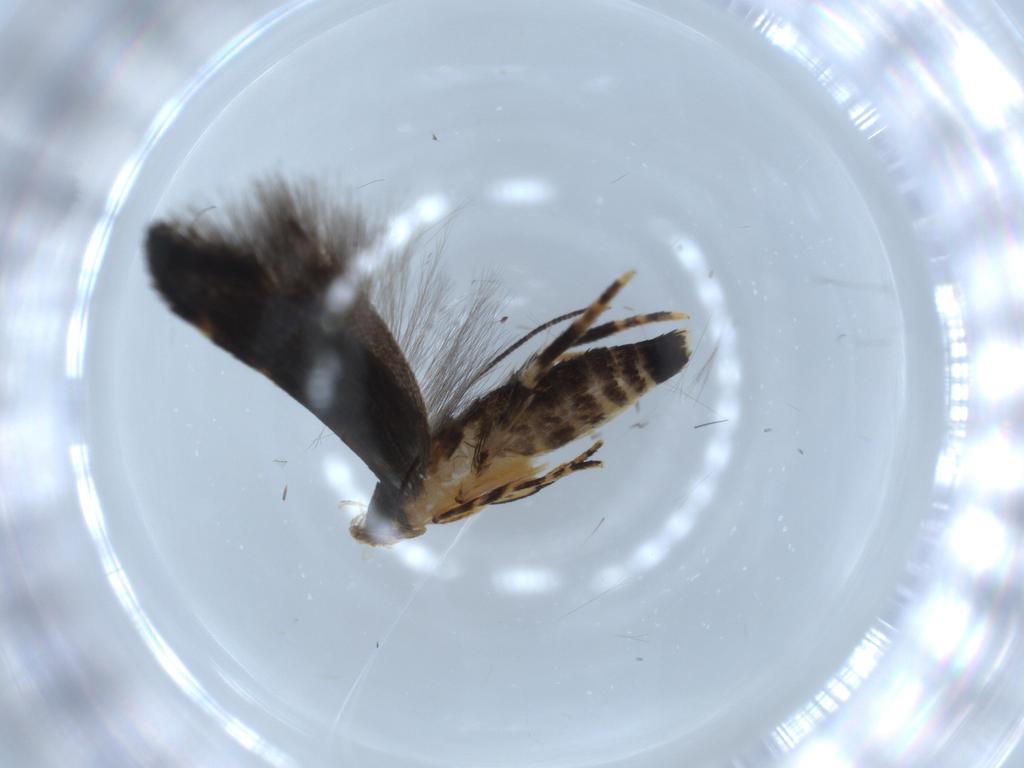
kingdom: Animalia
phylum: Arthropoda
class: Insecta
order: Lepidoptera
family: Momphidae
